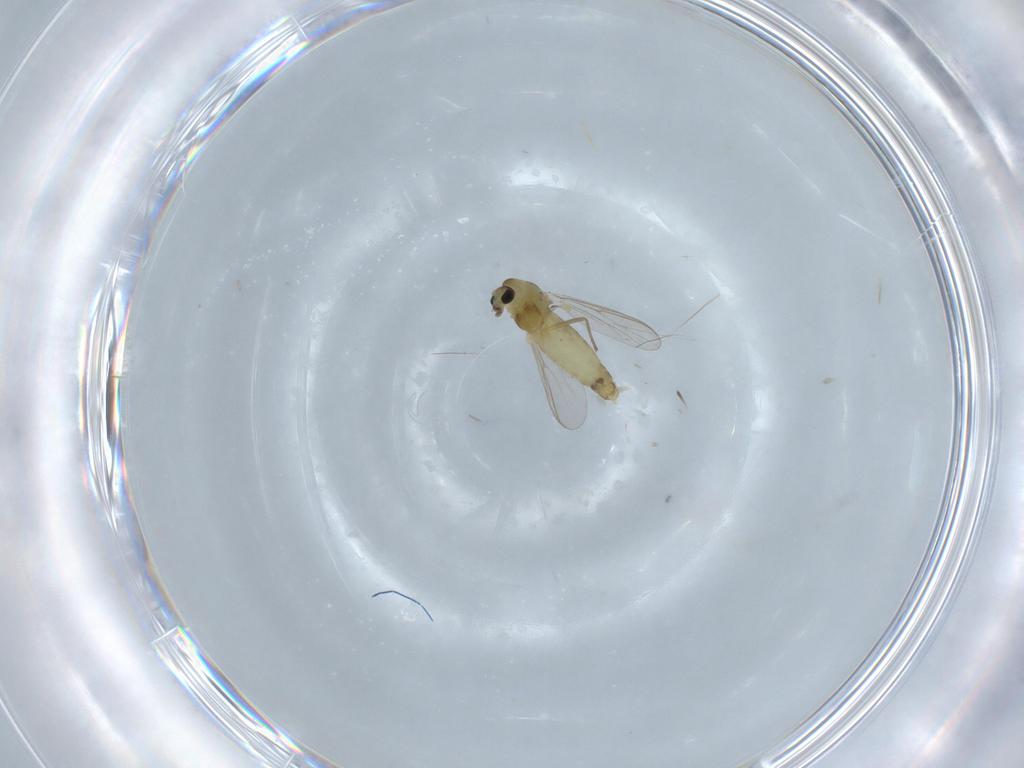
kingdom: Animalia
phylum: Arthropoda
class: Insecta
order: Diptera
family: Chironomidae
